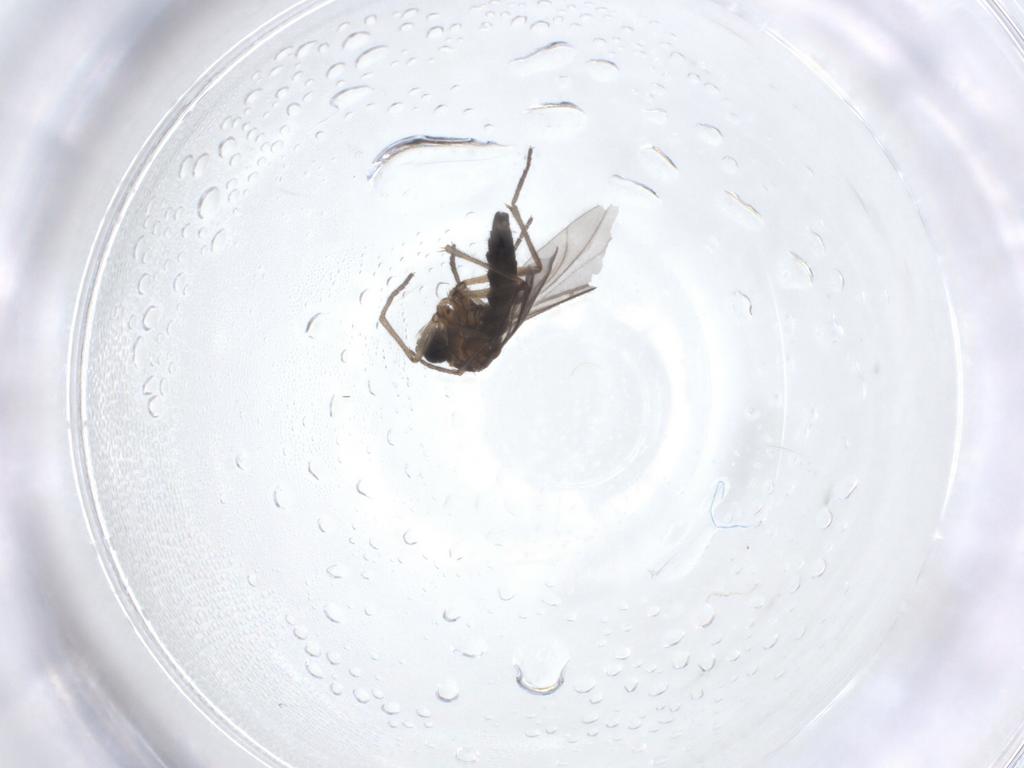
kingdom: Animalia
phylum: Arthropoda
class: Insecta
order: Diptera
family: Sciaridae
